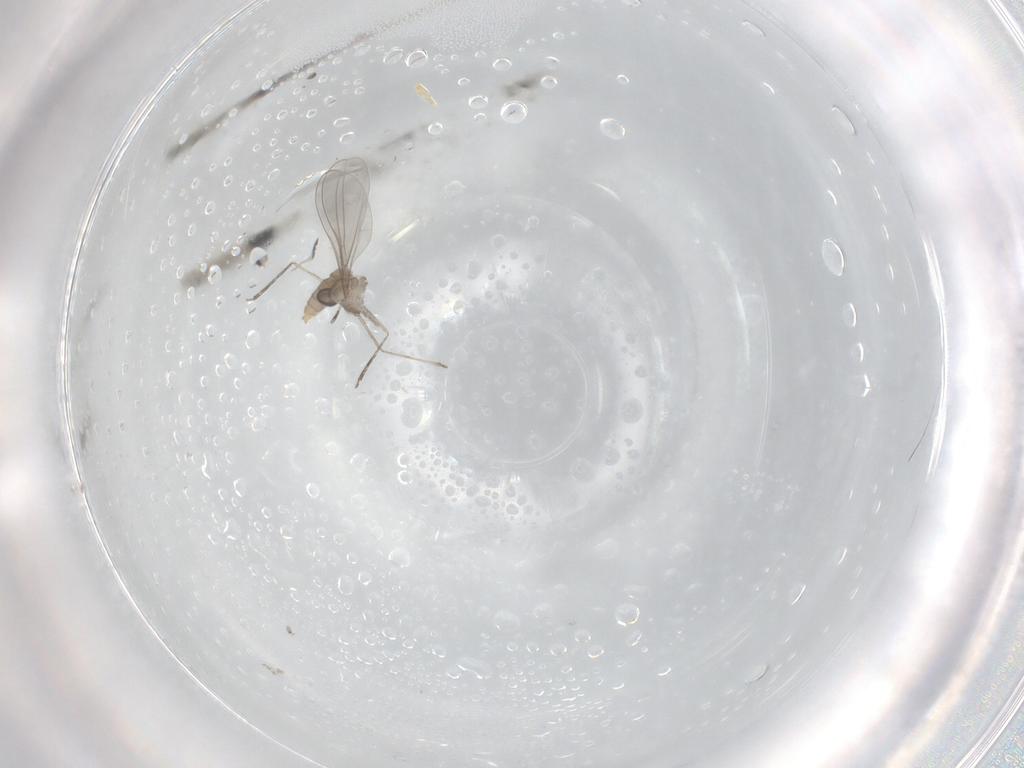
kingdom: Animalia
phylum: Arthropoda
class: Insecta
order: Diptera
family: Cecidomyiidae
